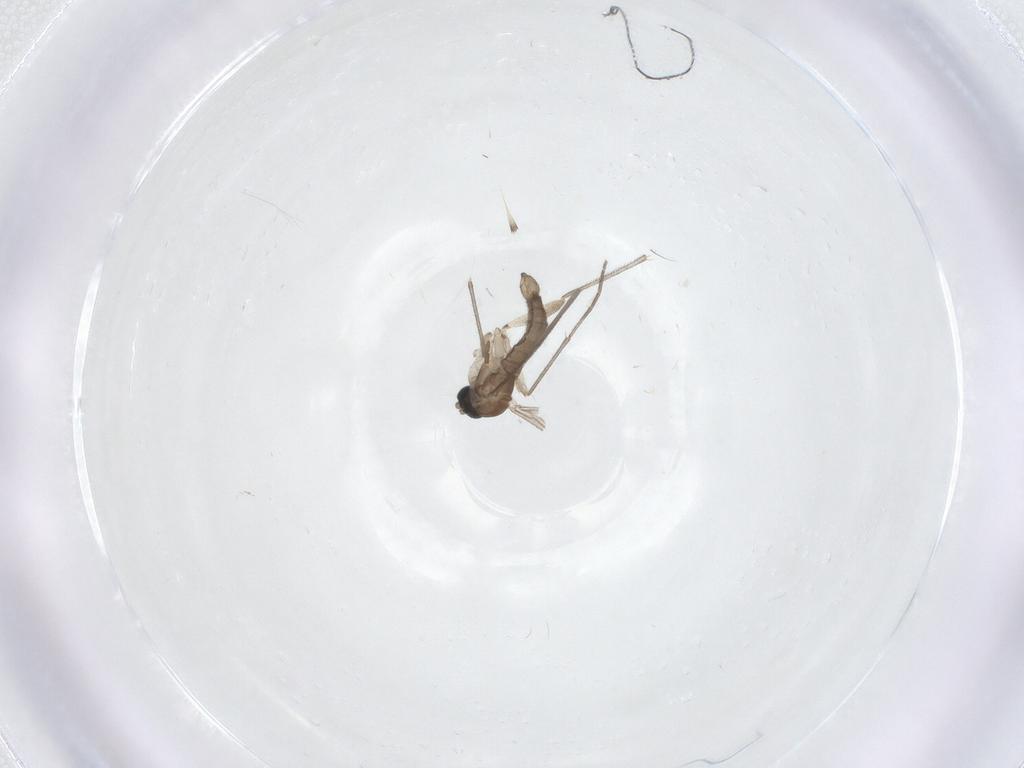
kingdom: Animalia
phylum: Arthropoda
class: Insecta
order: Diptera
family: Sciaridae
